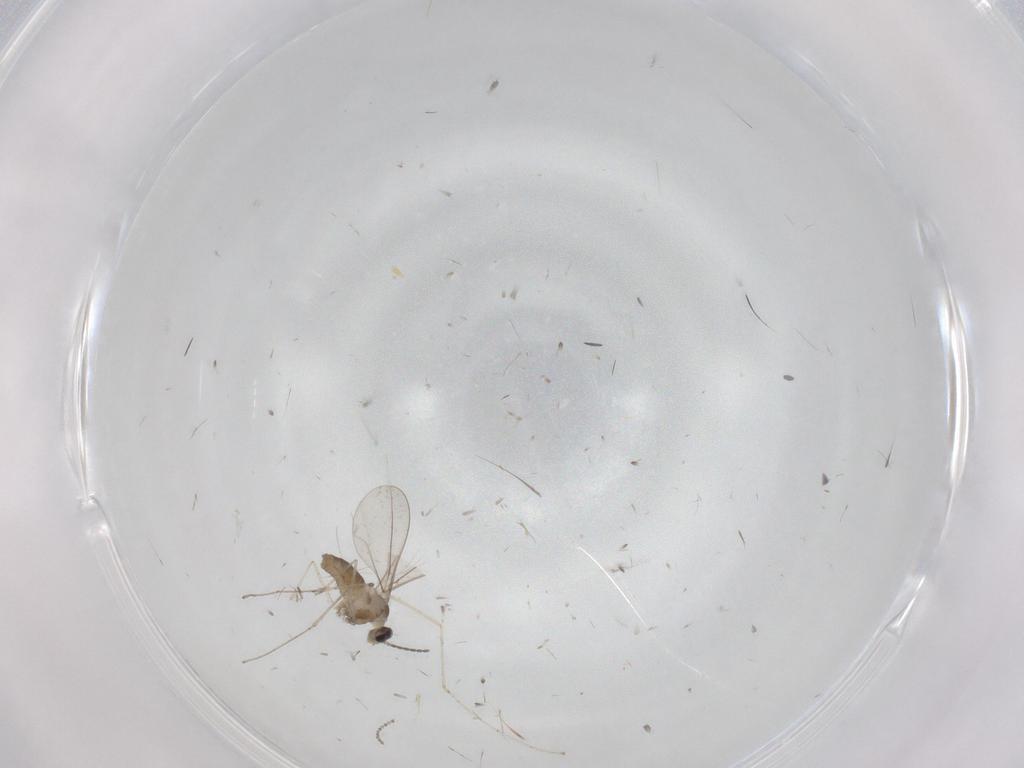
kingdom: Animalia
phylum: Arthropoda
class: Insecta
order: Diptera
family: Cecidomyiidae
